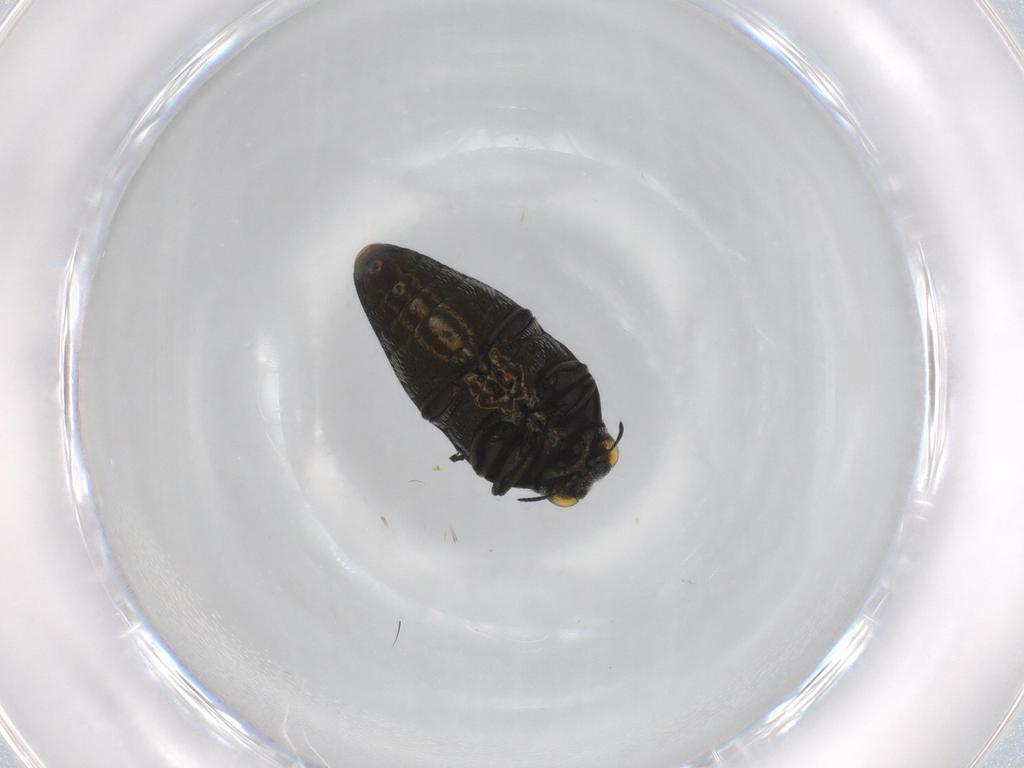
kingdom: Animalia
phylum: Arthropoda
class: Insecta
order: Coleoptera
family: Buprestidae
